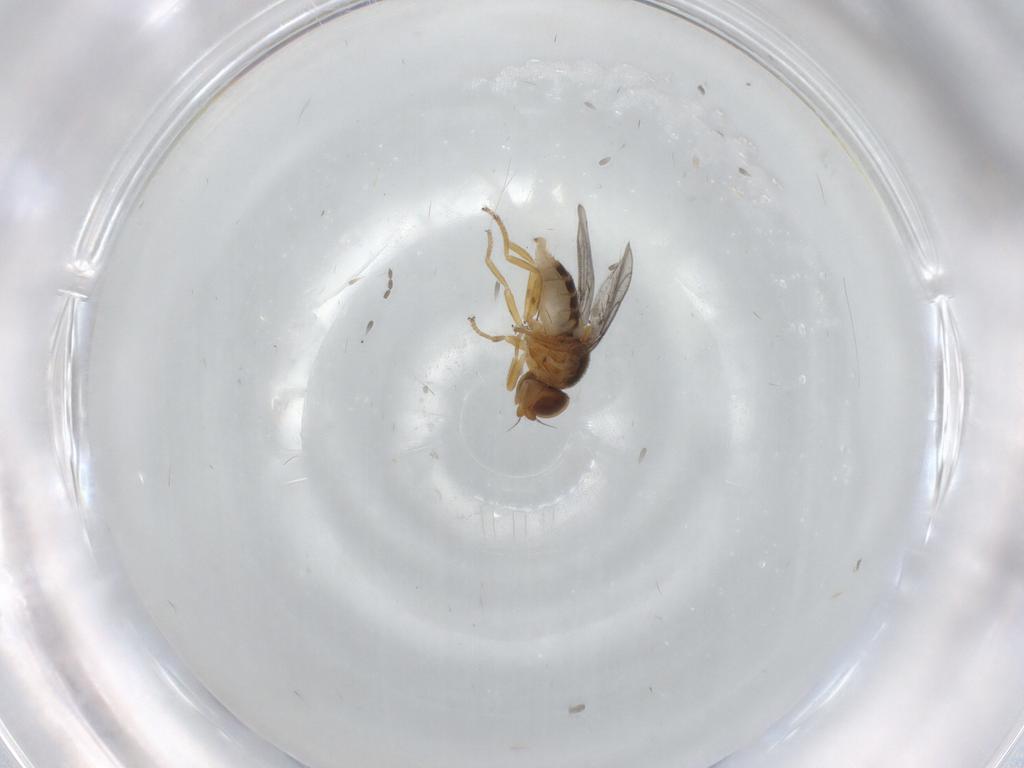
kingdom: Animalia
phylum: Arthropoda
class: Insecta
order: Diptera
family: Chloropidae
